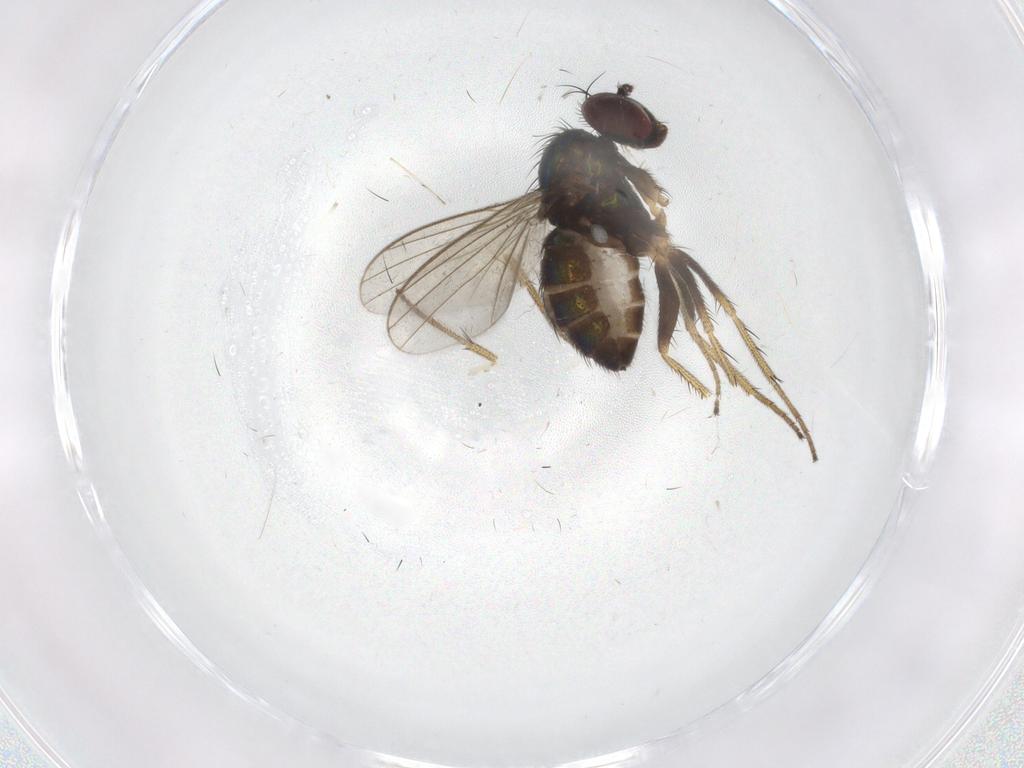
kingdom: Animalia
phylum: Arthropoda
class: Insecta
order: Diptera
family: Dolichopodidae
